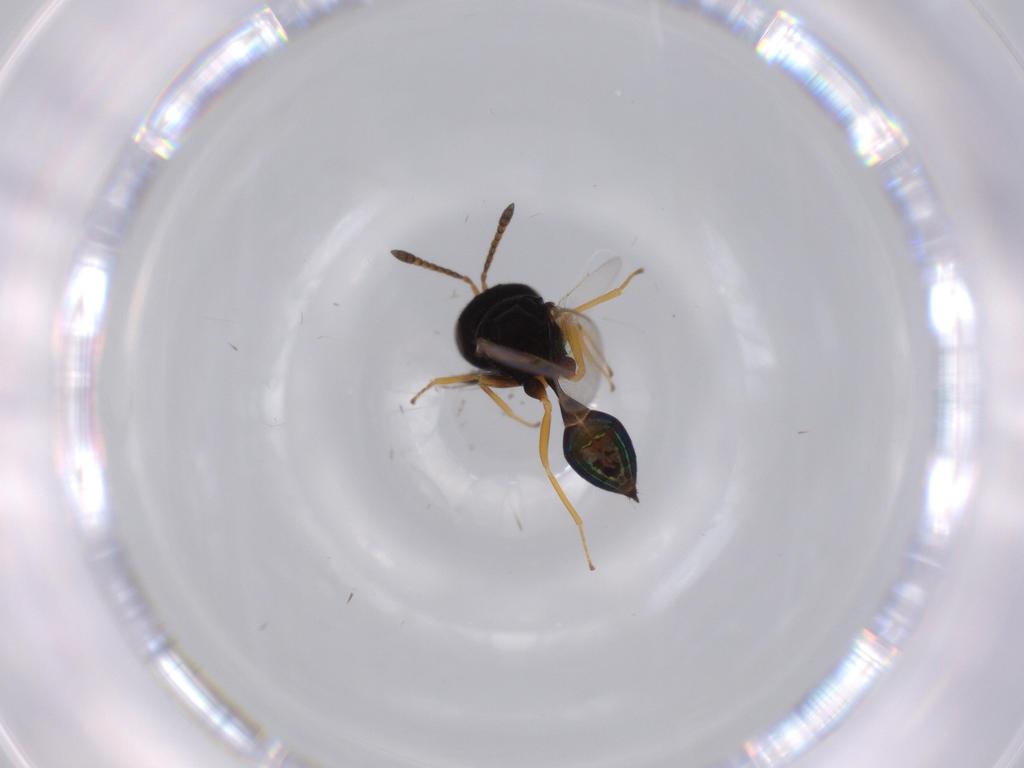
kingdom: Animalia
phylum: Arthropoda
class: Insecta
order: Hymenoptera
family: Pteromalidae
